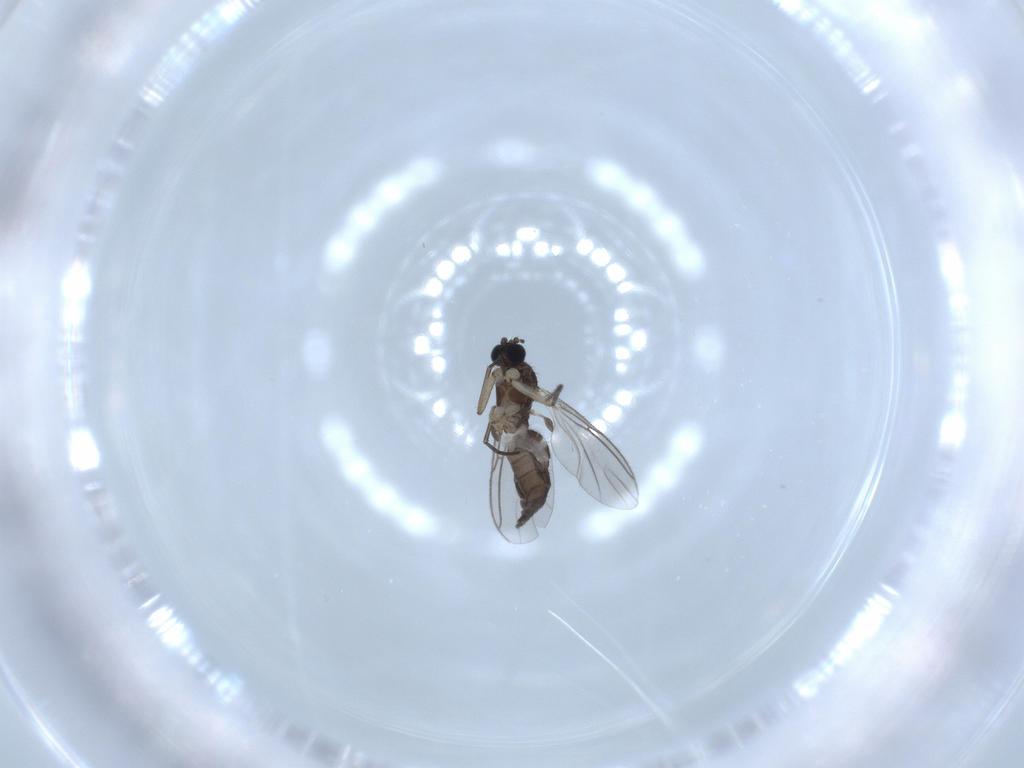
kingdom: Animalia
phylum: Arthropoda
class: Insecta
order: Diptera
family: Sciaridae
